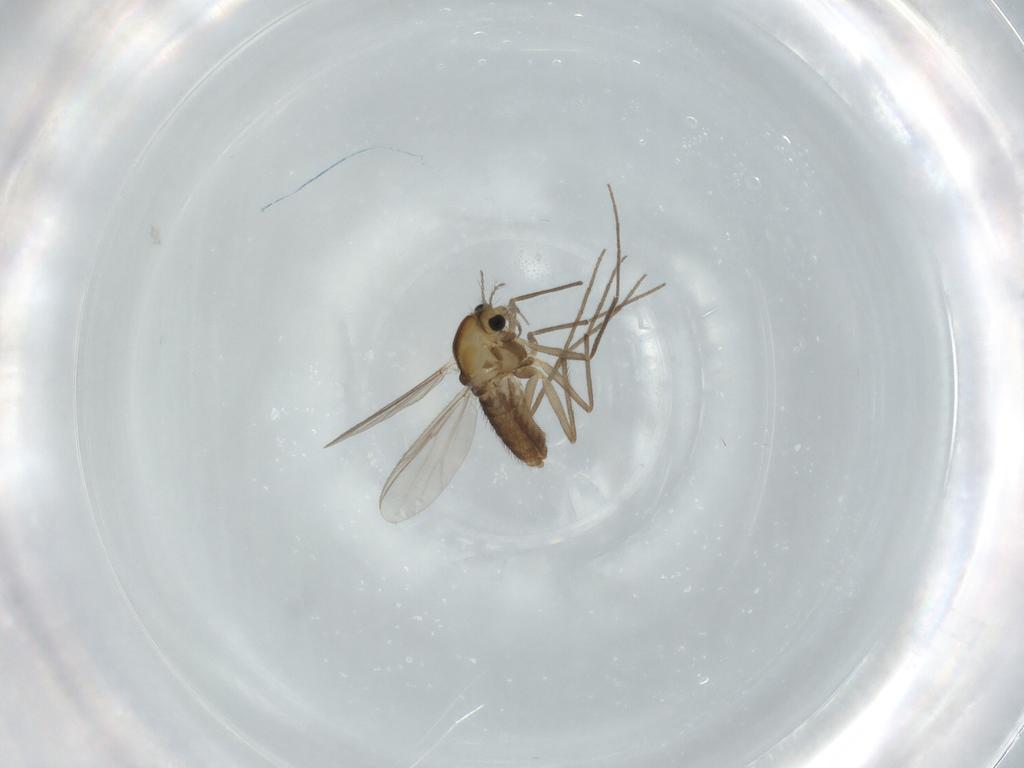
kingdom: Animalia
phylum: Arthropoda
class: Insecta
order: Diptera
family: Chironomidae
